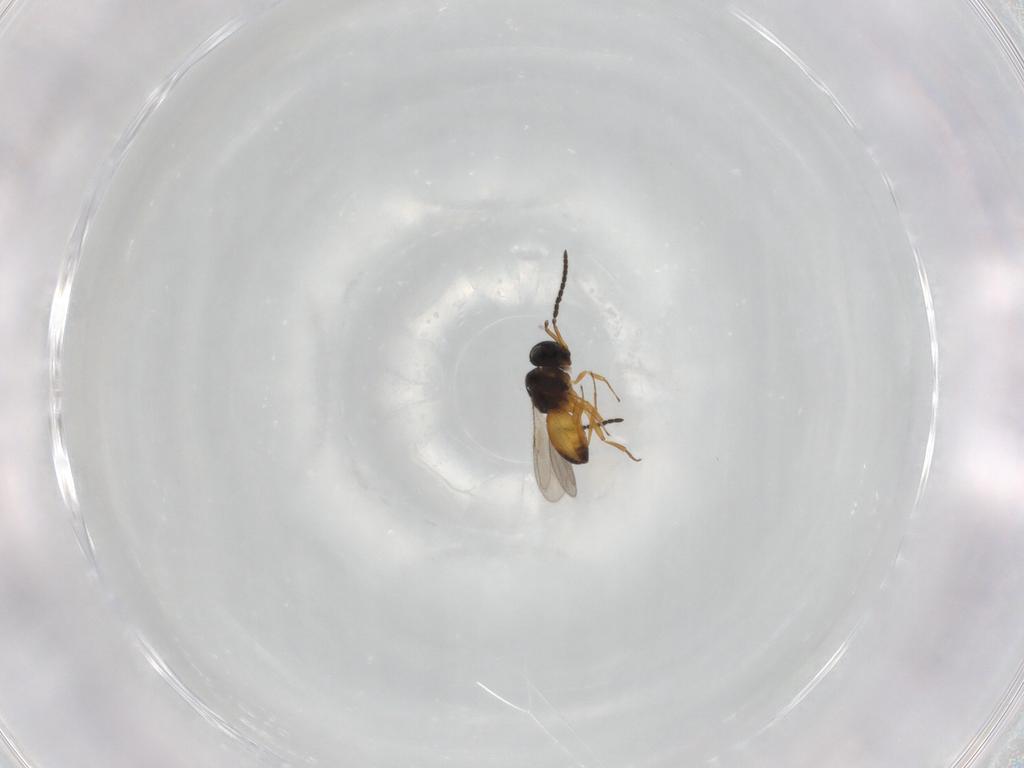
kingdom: Animalia
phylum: Arthropoda
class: Insecta
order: Hymenoptera
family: Scelionidae
